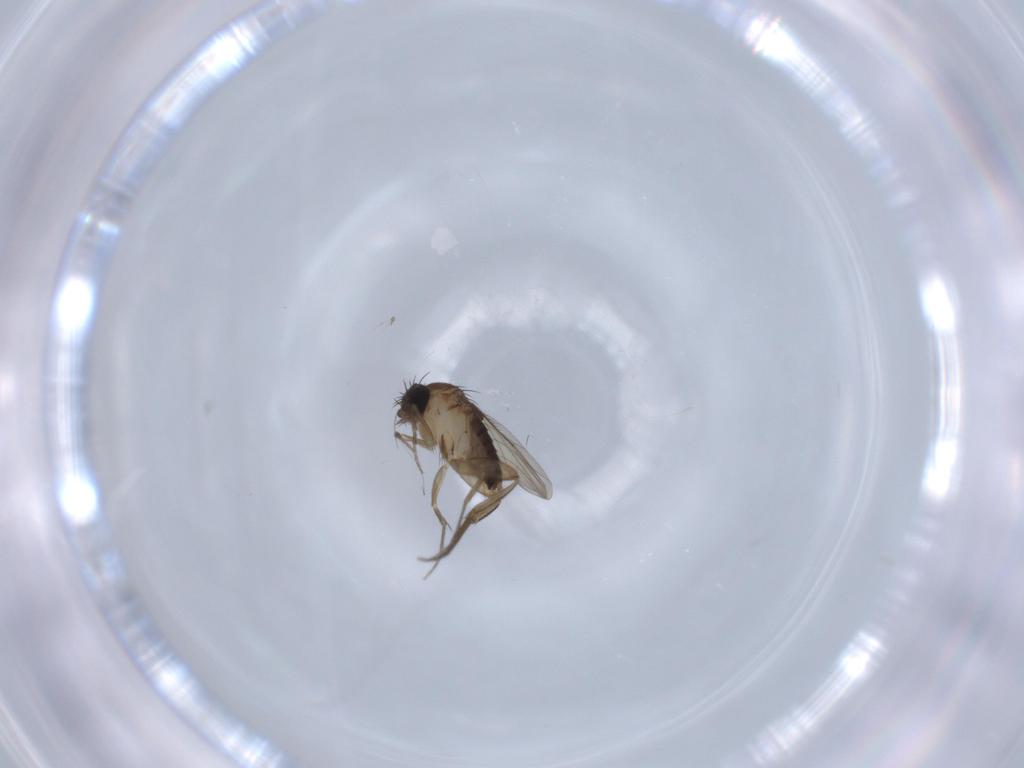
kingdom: Animalia
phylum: Arthropoda
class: Insecta
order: Diptera
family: Phoridae
